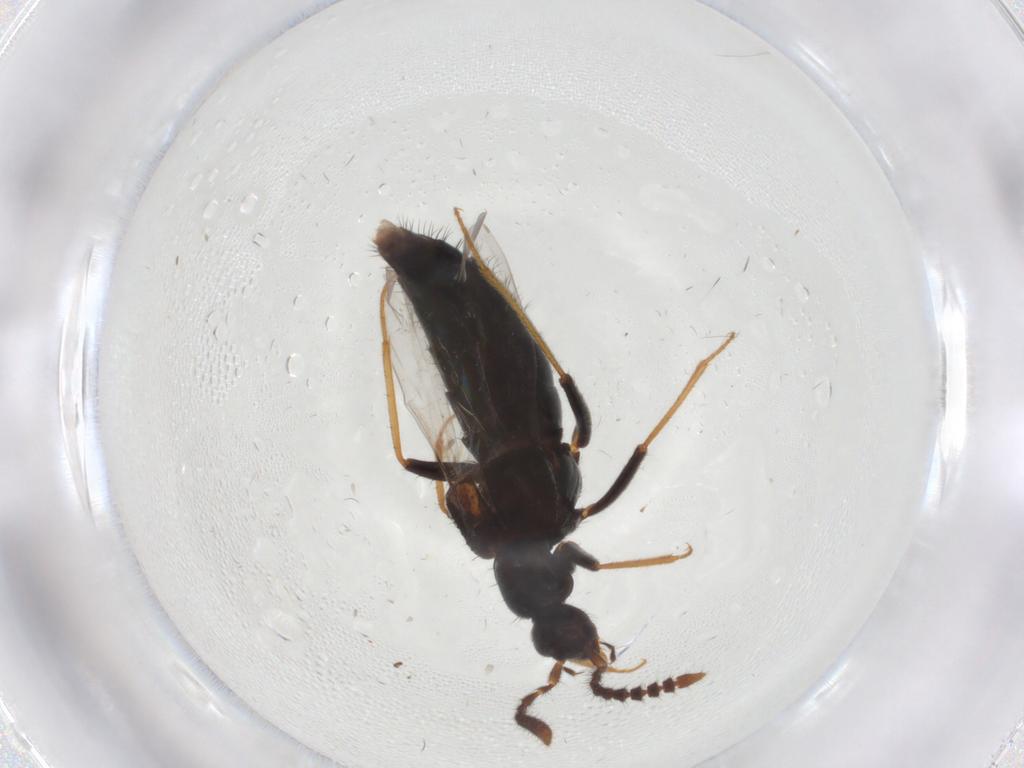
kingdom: Animalia
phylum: Arthropoda
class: Insecta
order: Coleoptera
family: Staphylinidae
